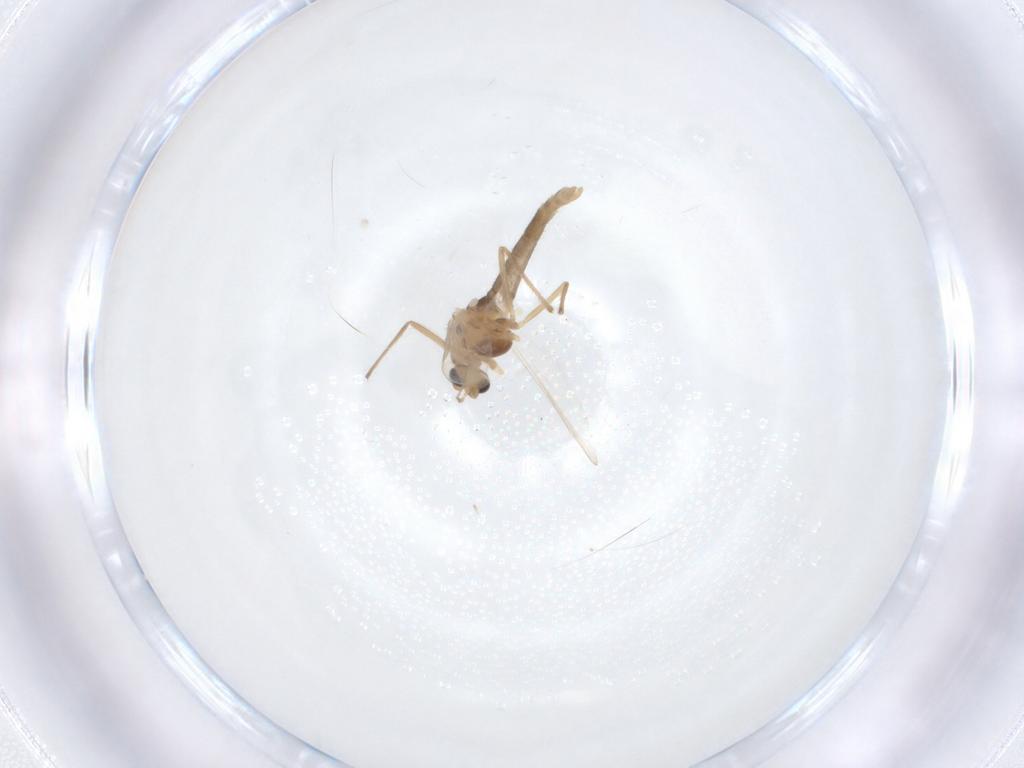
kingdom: Animalia
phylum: Arthropoda
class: Insecta
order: Diptera
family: Chironomidae
